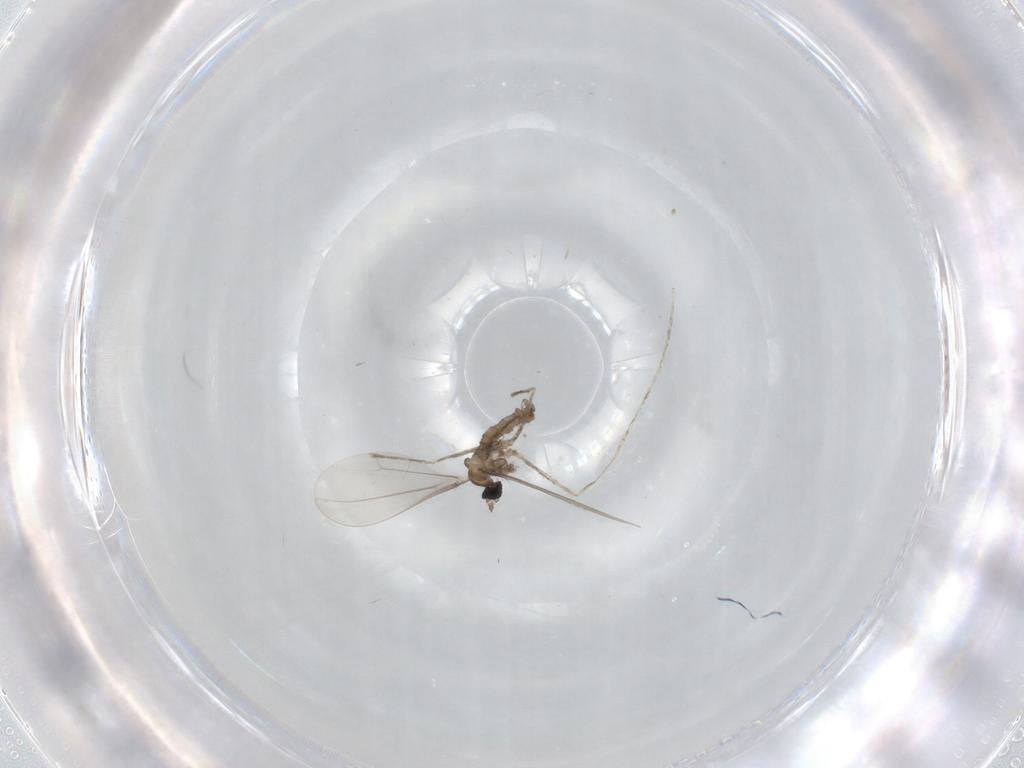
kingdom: Animalia
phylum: Arthropoda
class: Insecta
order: Diptera
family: Cecidomyiidae
